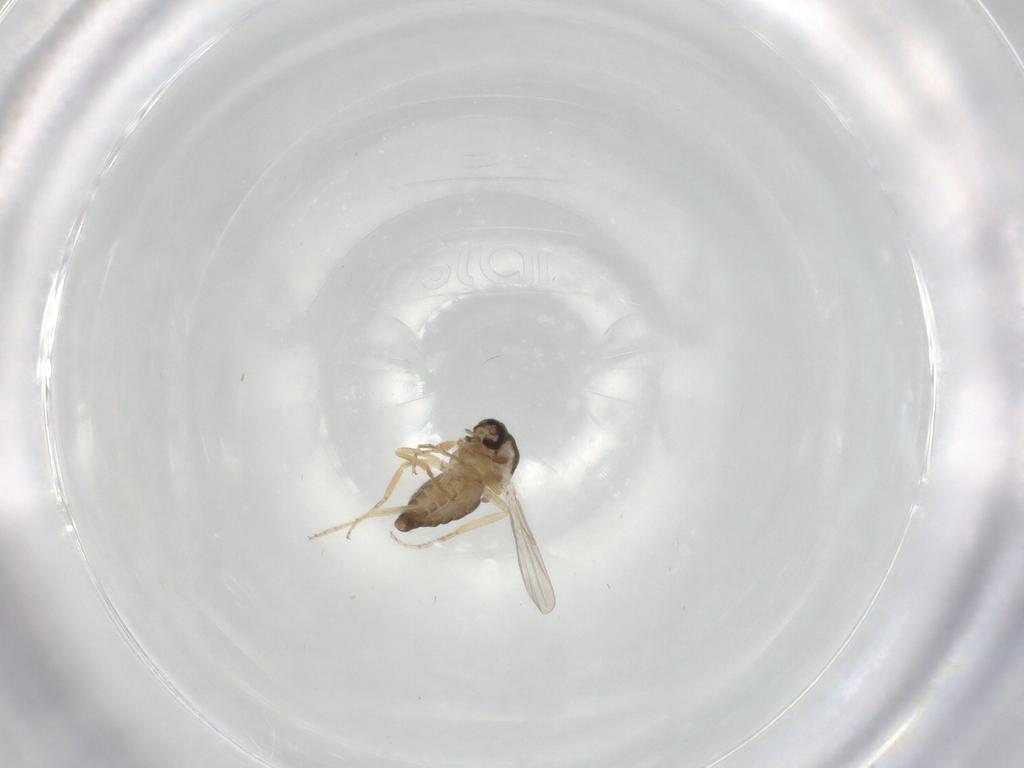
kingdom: Animalia
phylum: Arthropoda
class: Insecta
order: Diptera
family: Ceratopogonidae
